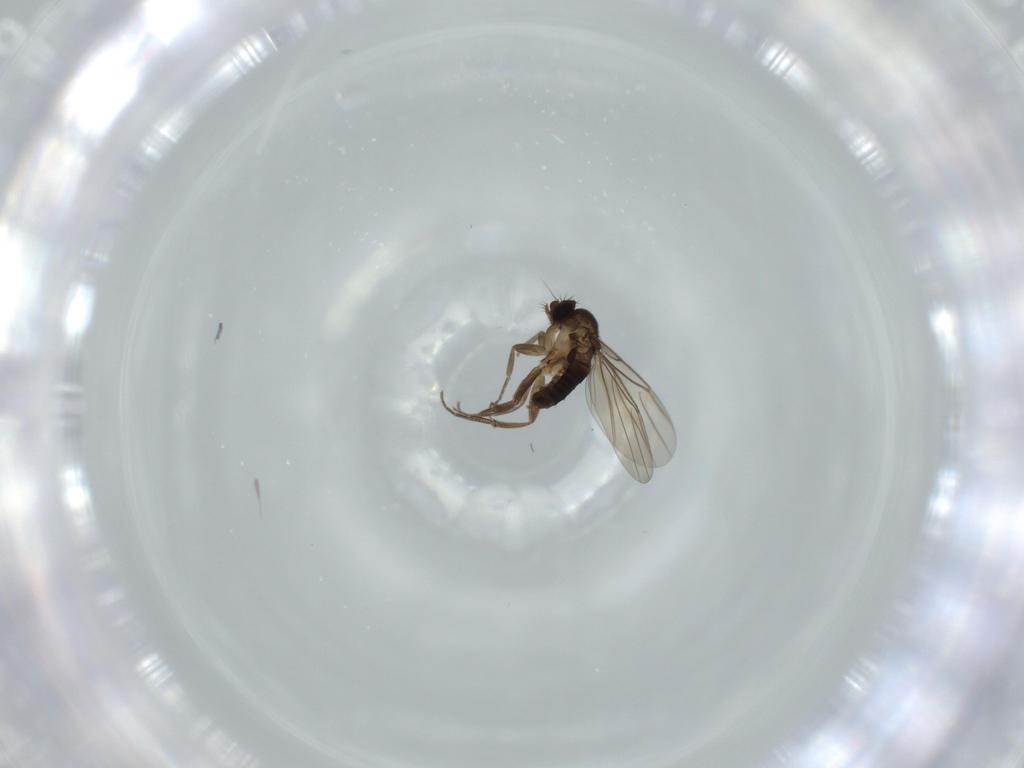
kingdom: Animalia
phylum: Arthropoda
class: Insecta
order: Diptera
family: Phoridae
